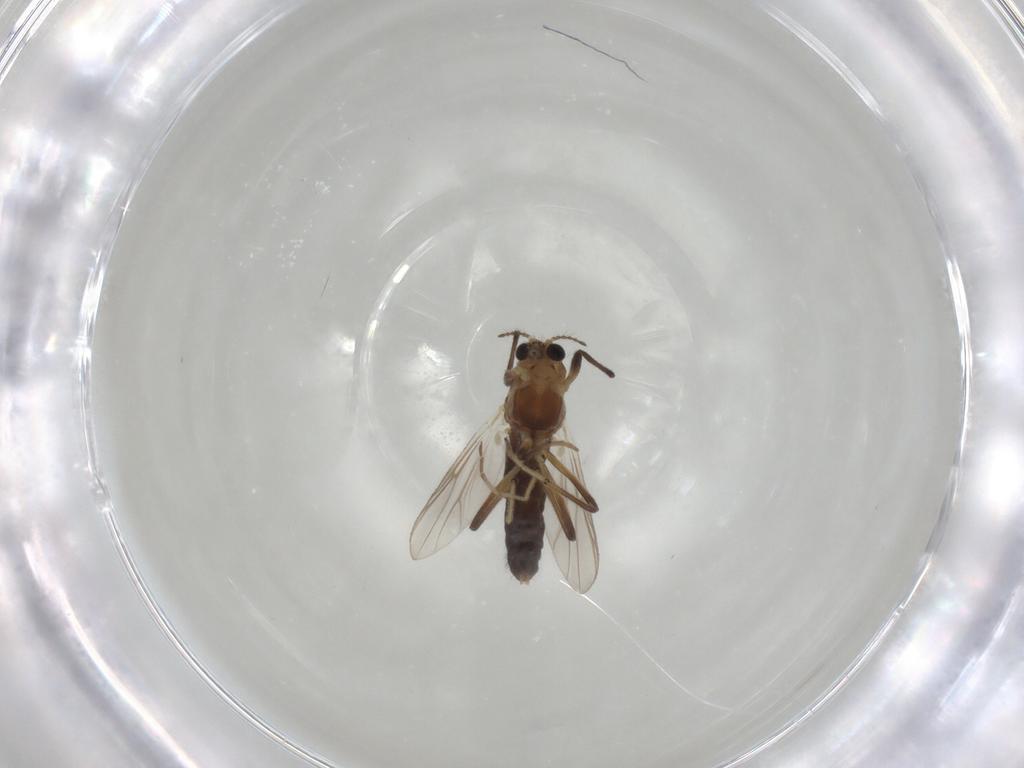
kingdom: Animalia
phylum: Arthropoda
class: Insecta
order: Diptera
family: Chironomidae
